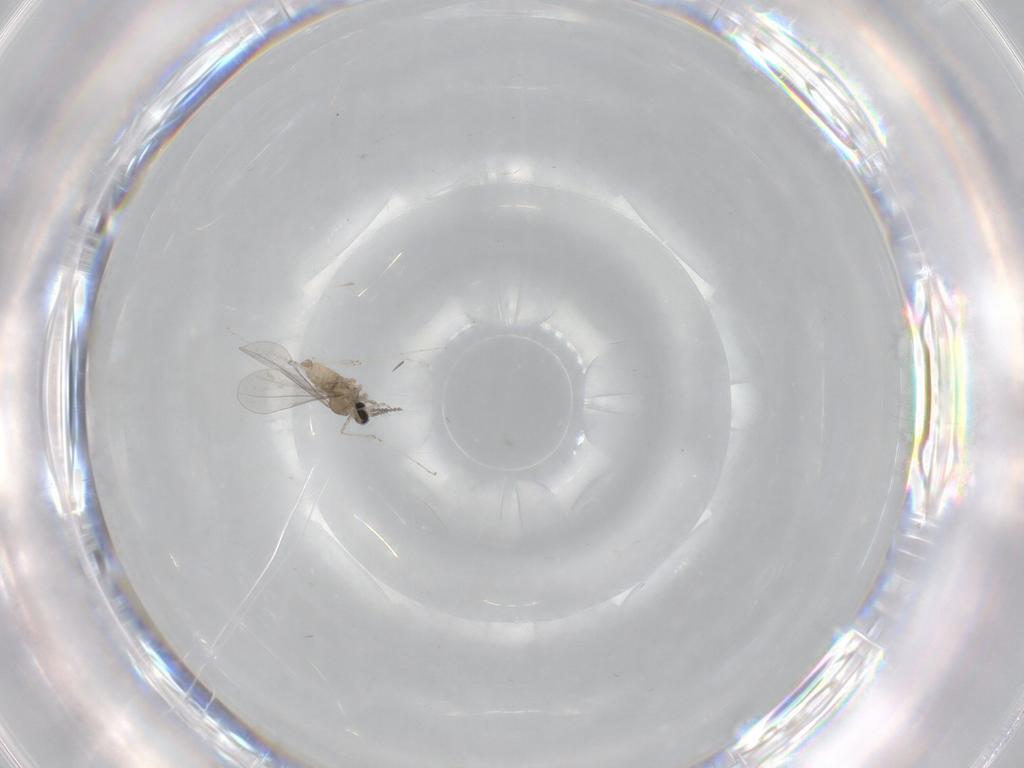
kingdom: Animalia
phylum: Arthropoda
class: Insecta
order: Diptera
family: Cecidomyiidae
